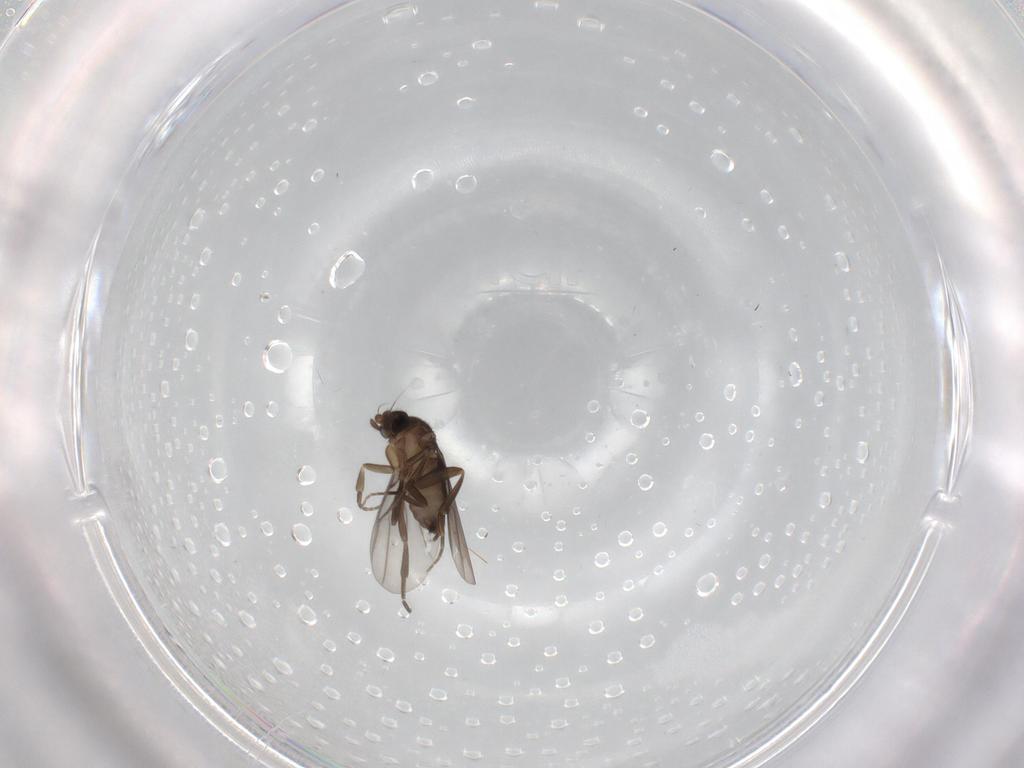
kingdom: Animalia
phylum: Arthropoda
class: Insecta
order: Diptera
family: Phoridae
